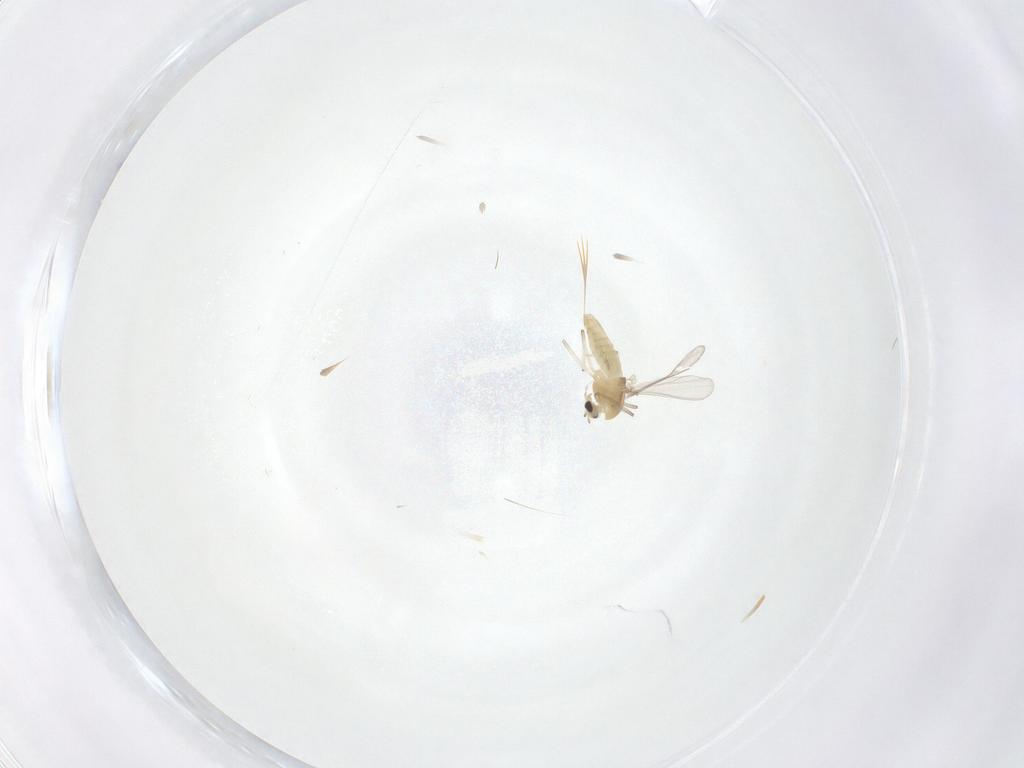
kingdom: Animalia
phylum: Arthropoda
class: Insecta
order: Diptera
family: Chironomidae
